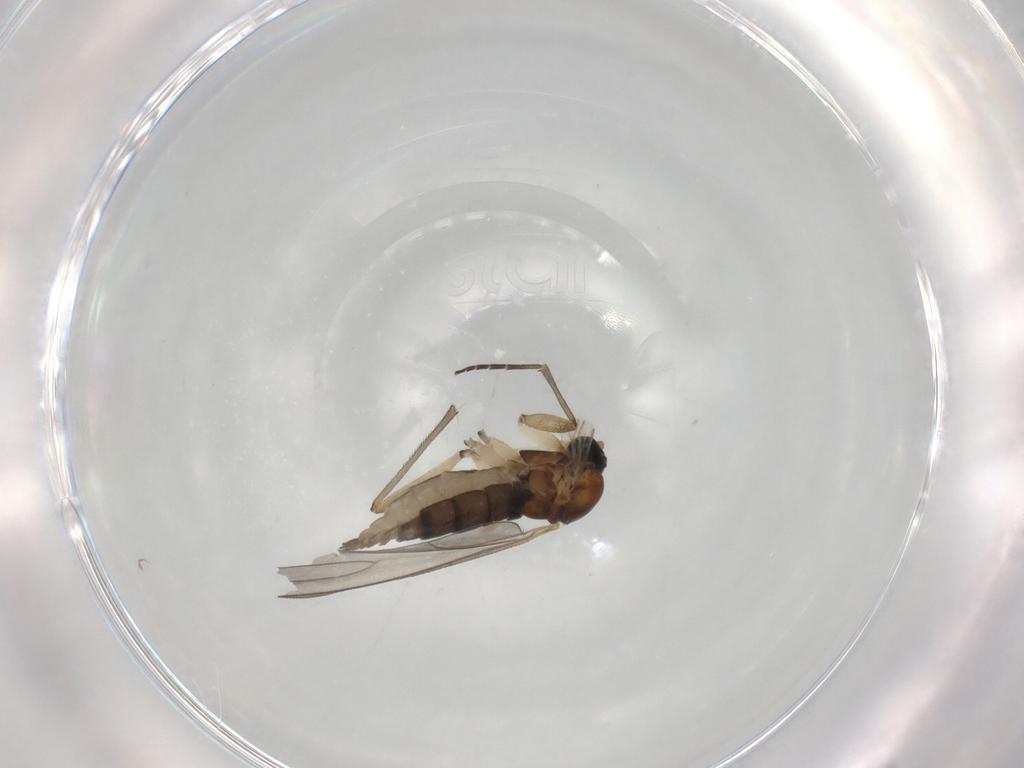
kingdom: Animalia
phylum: Arthropoda
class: Insecta
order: Diptera
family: Sciaridae
